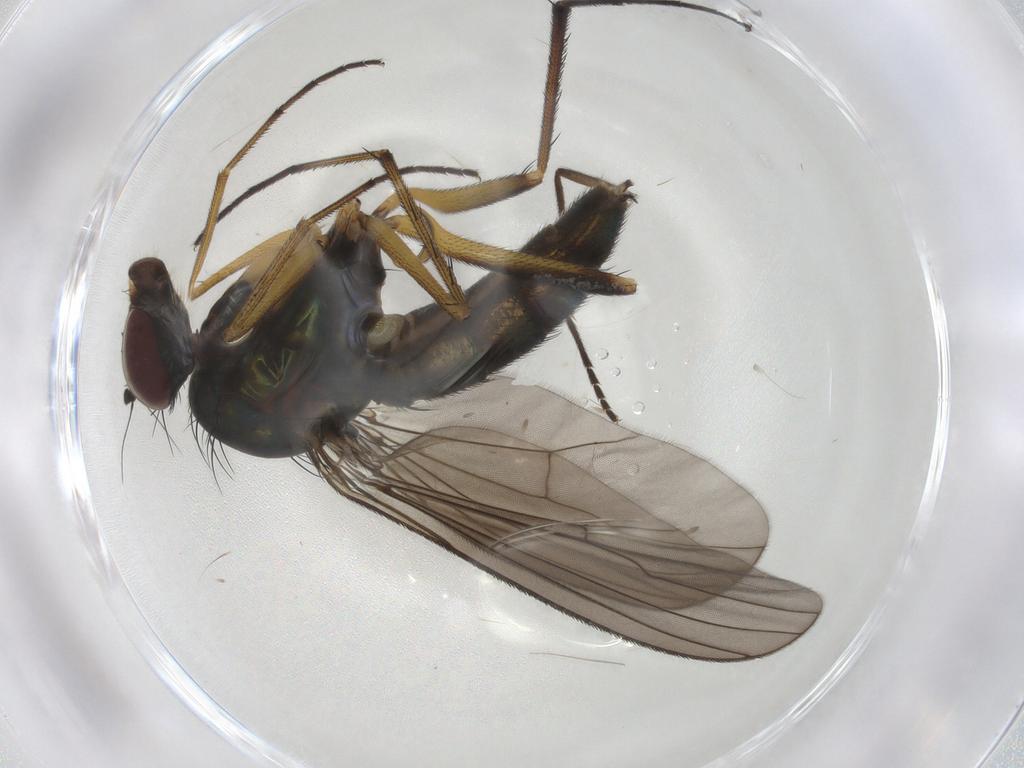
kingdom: Animalia
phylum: Arthropoda
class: Insecta
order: Diptera
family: Dolichopodidae
